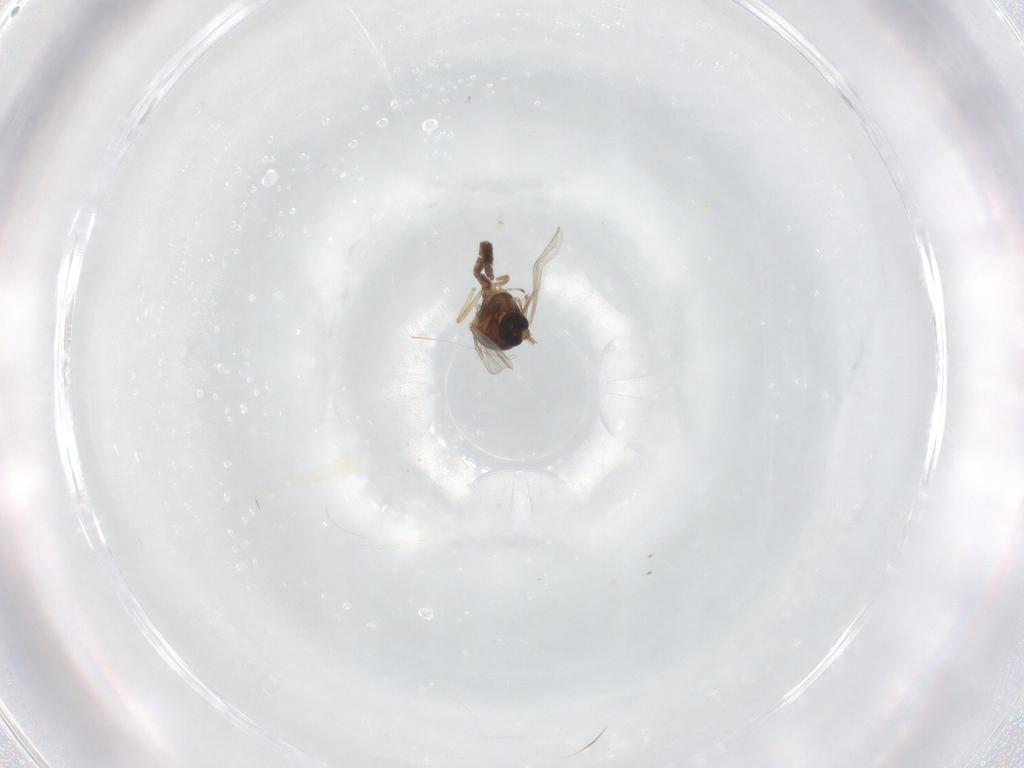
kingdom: Animalia
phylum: Arthropoda
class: Insecta
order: Diptera
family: Ceratopogonidae
